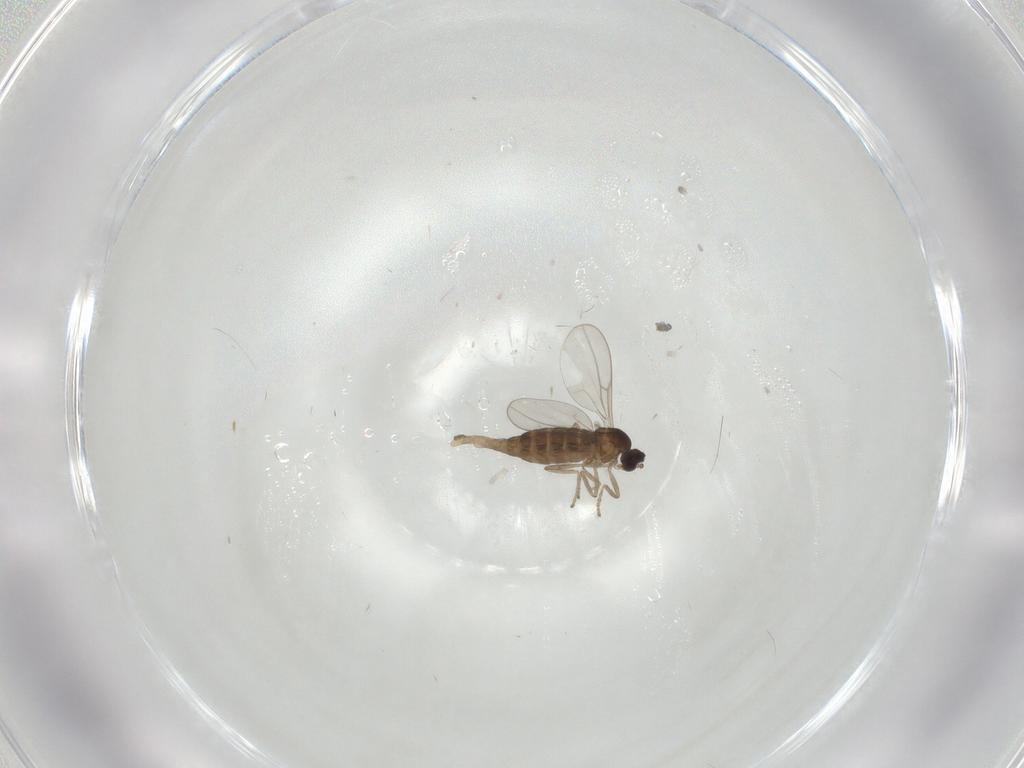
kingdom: Animalia
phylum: Arthropoda
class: Insecta
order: Diptera
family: Cecidomyiidae
